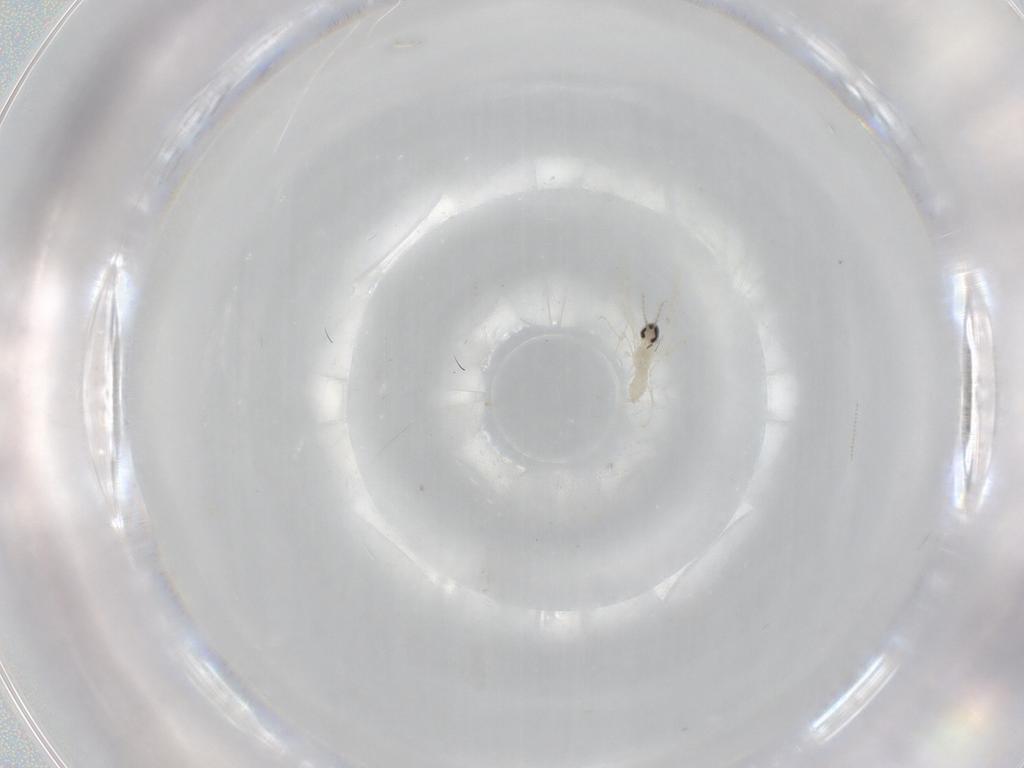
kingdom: Animalia
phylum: Arthropoda
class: Insecta
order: Diptera
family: Cecidomyiidae
